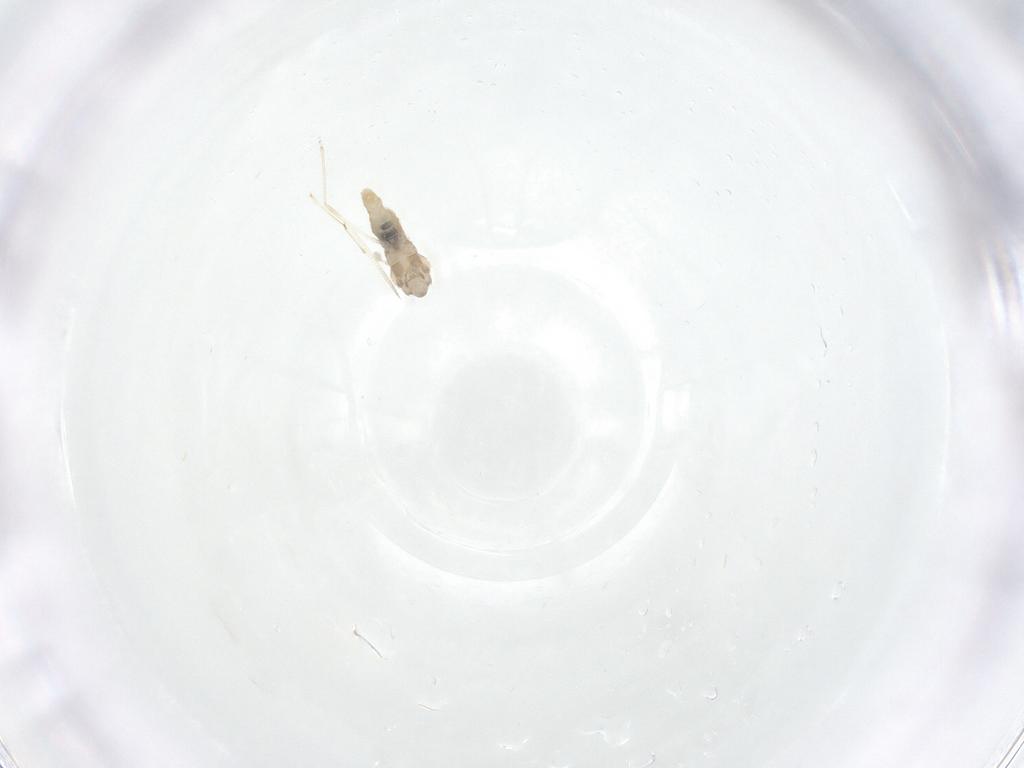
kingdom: Animalia
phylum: Arthropoda
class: Insecta
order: Diptera
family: Cecidomyiidae
